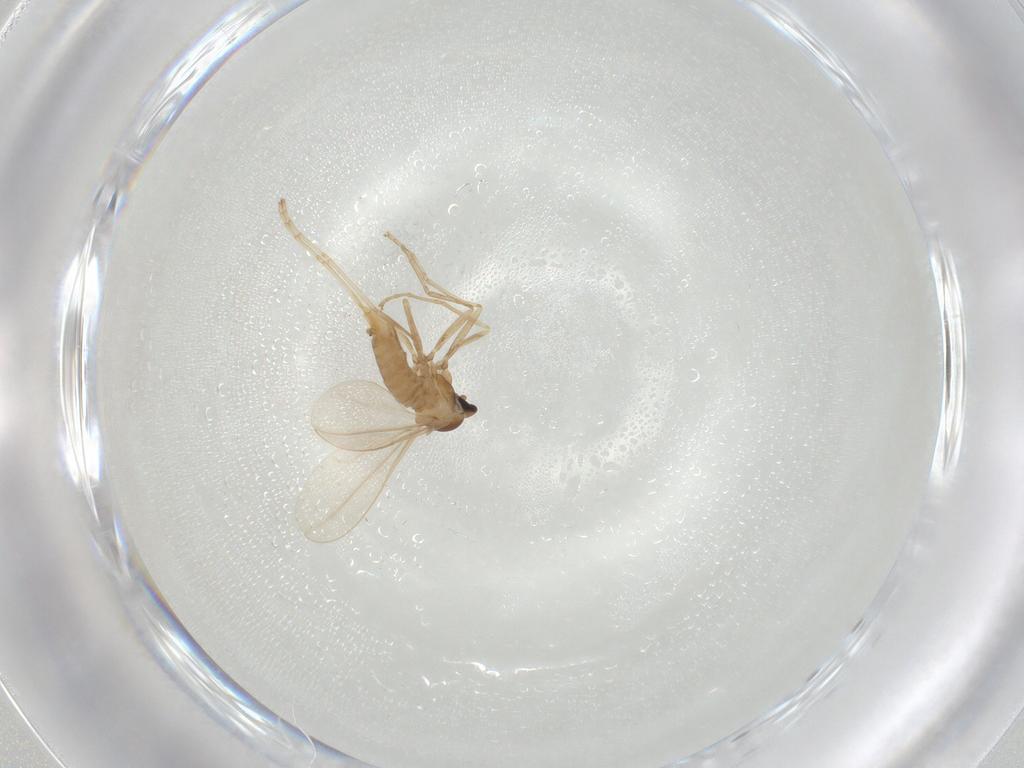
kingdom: Animalia
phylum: Arthropoda
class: Insecta
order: Diptera
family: Cecidomyiidae
